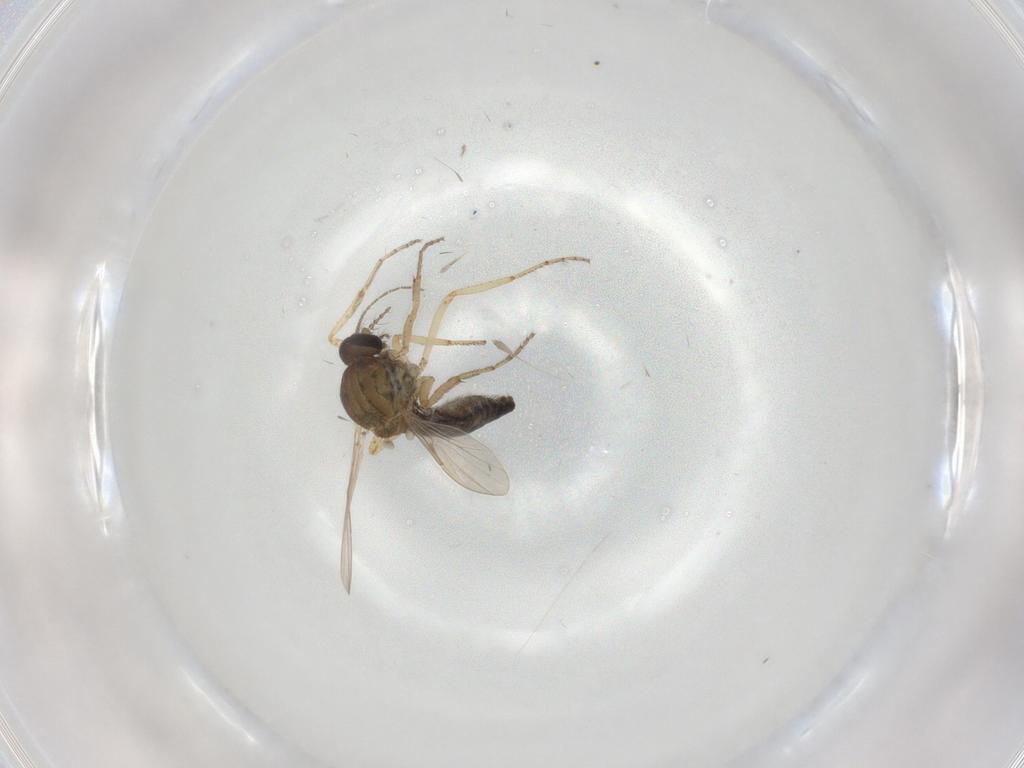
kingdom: Animalia
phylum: Arthropoda
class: Insecta
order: Diptera
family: Ceratopogonidae
